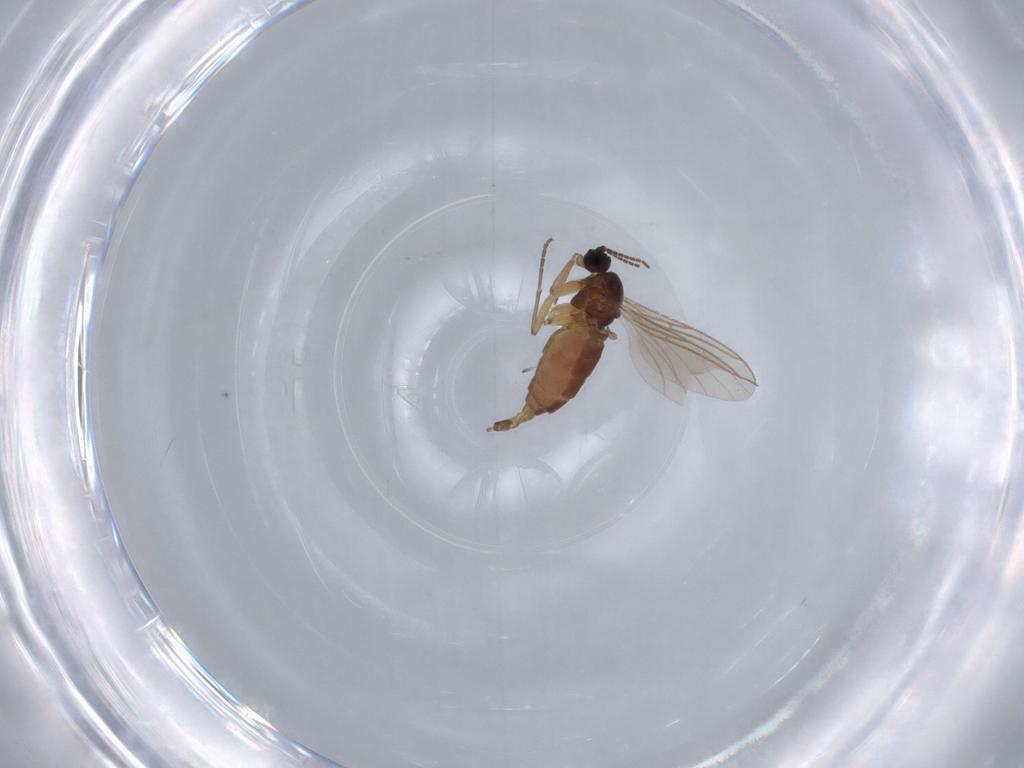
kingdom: Animalia
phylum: Arthropoda
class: Insecta
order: Diptera
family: Sciaridae
